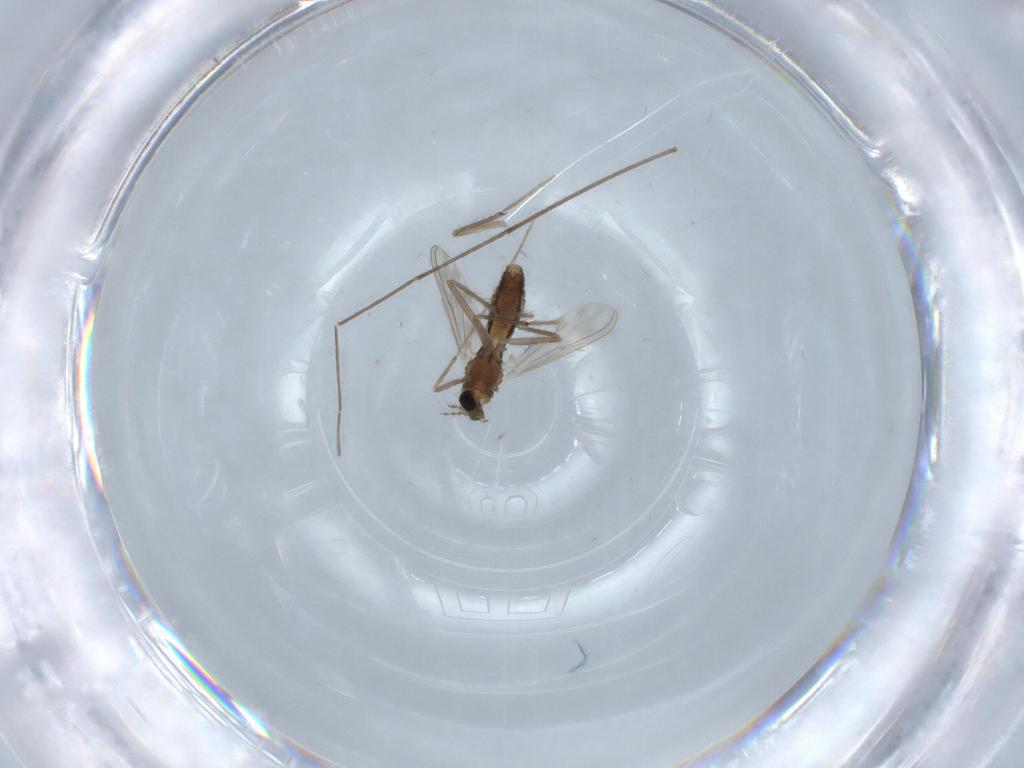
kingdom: Animalia
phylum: Arthropoda
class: Insecta
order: Diptera
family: Chironomidae
